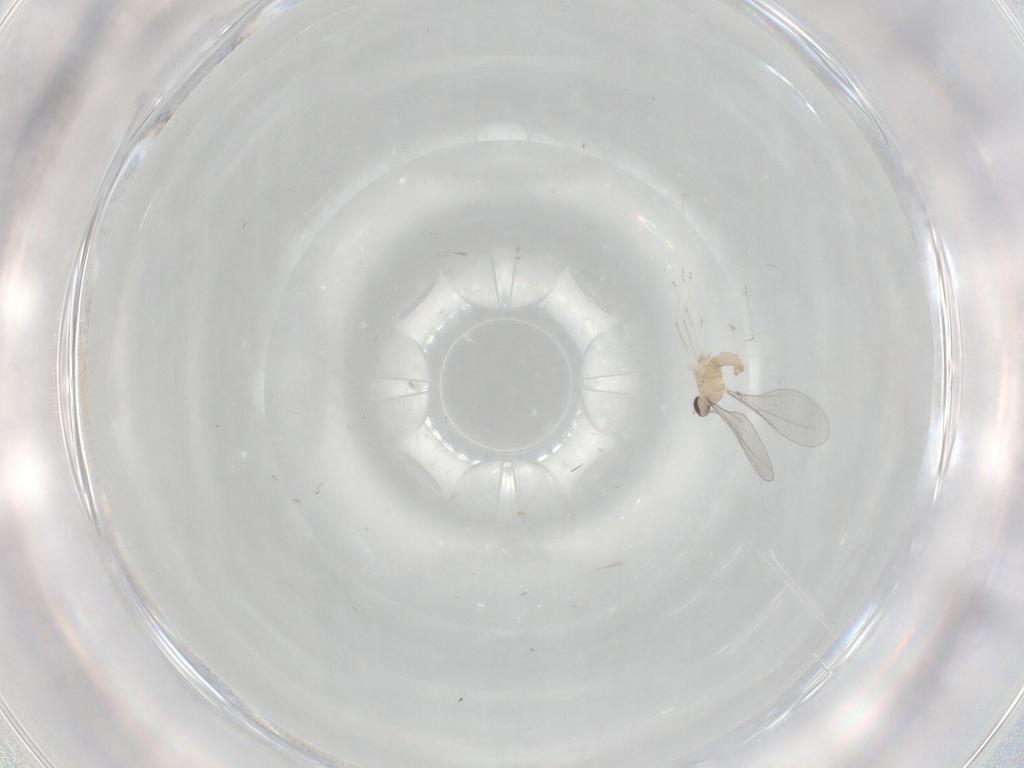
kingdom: Animalia
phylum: Arthropoda
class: Insecta
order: Diptera
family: Cecidomyiidae
